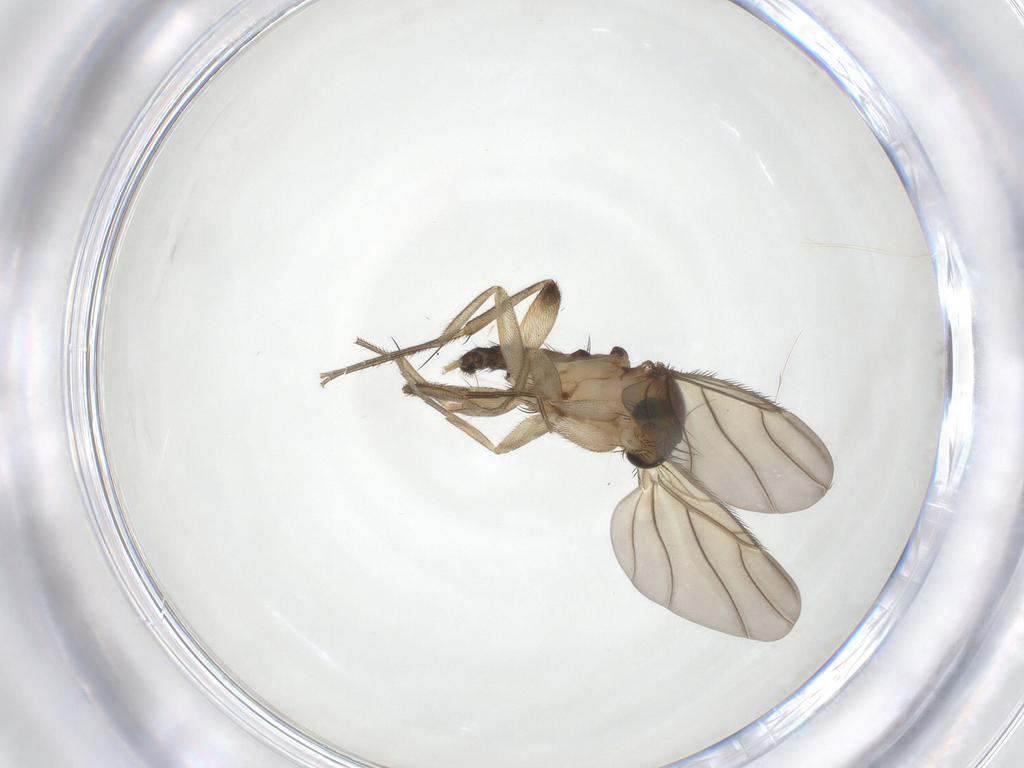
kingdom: Animalia
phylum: Arthropoda
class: Insecta
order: Diptera
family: Phoridae
